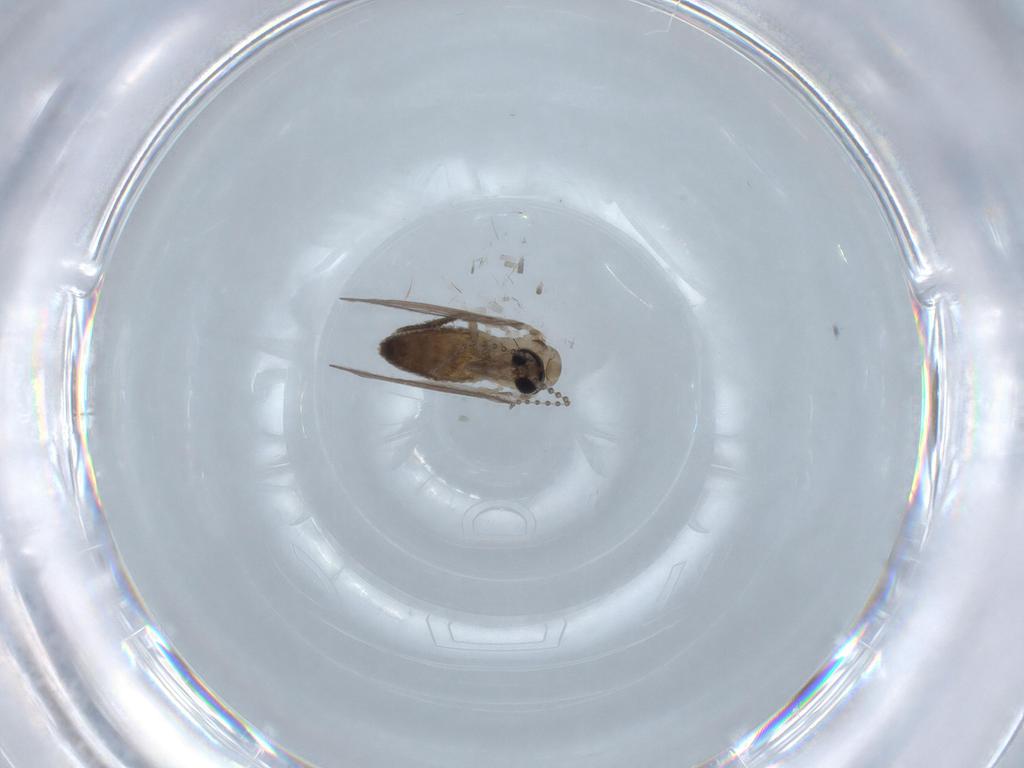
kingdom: Animalia
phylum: Arthropoda
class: Insecta
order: Diptera
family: Psychodidae
